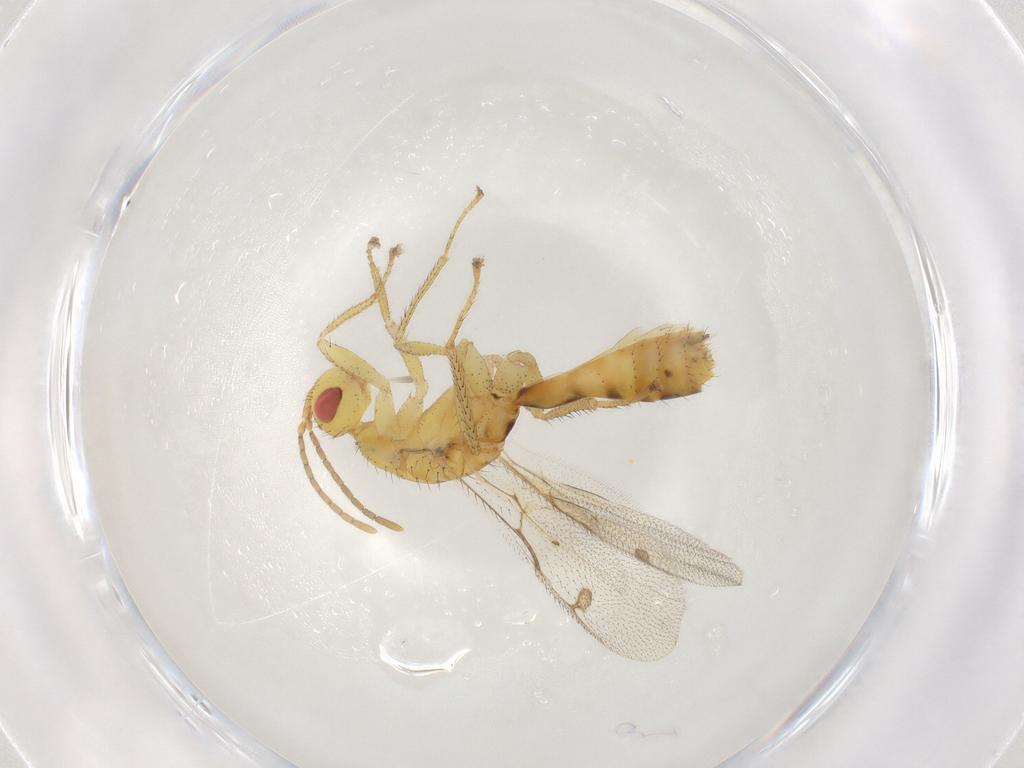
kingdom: Animalia
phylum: Arthropoda
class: Insecta
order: Hymenoptera
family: Megastigmidae
